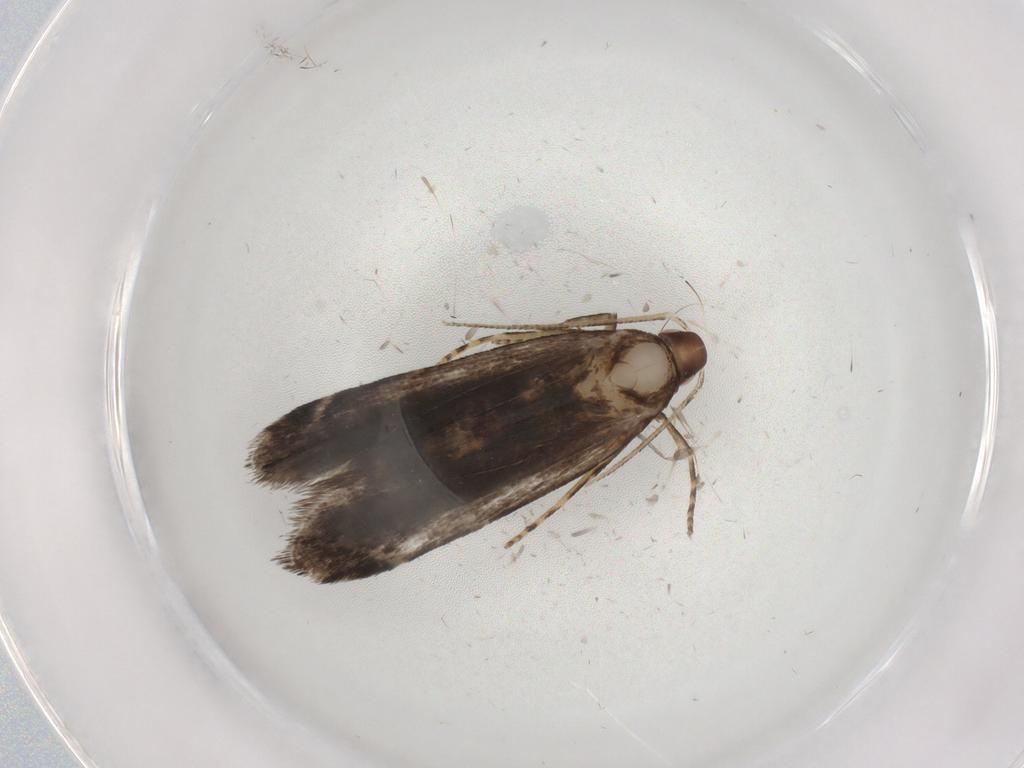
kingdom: Animalia
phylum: Arthropoda
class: Insecta
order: Lepidoptera
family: Gelechiidae
